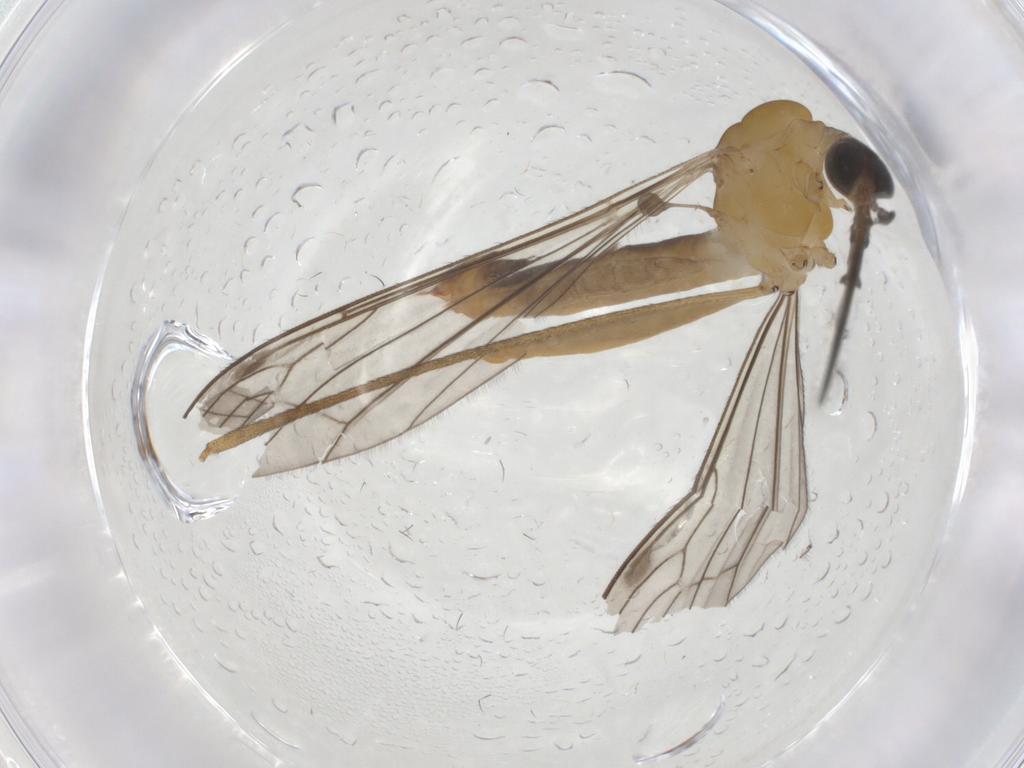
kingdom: Animalia
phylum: Arthropoda
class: Insecta
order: Diptera
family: Limoniidae
